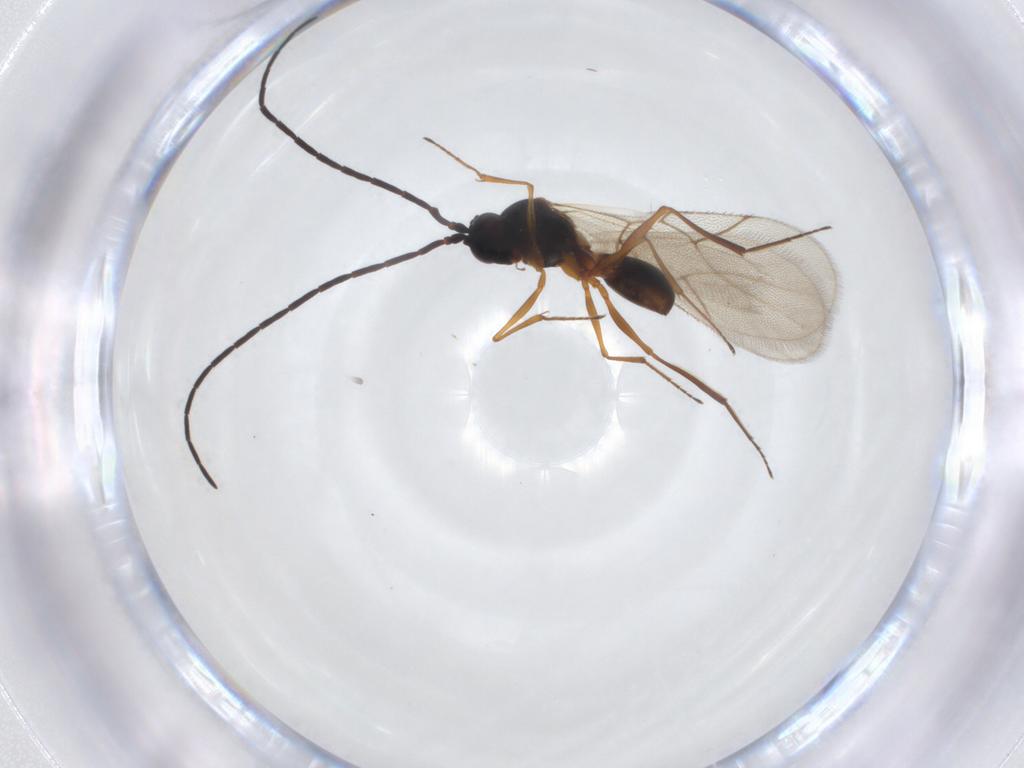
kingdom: Animalia
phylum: Arthropoda
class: Insecta
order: Hymenoptera
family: Figitidae
